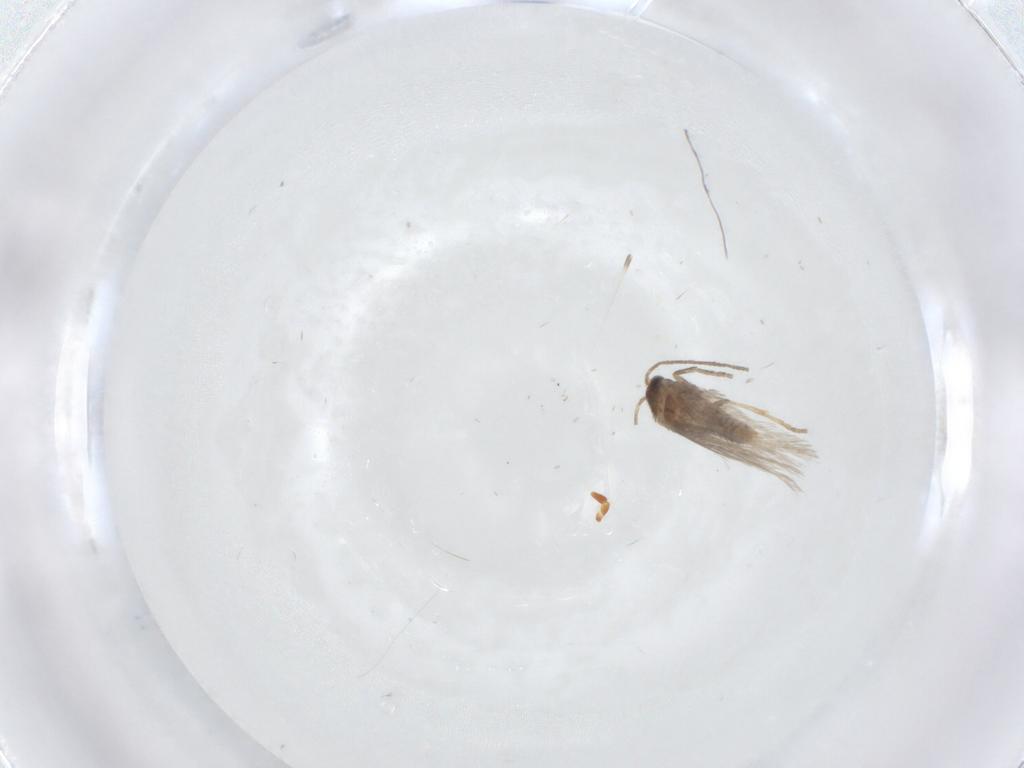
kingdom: Animalia
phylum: Arthropoda
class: Insecta
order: Lepidoptera
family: Nepticulidae
